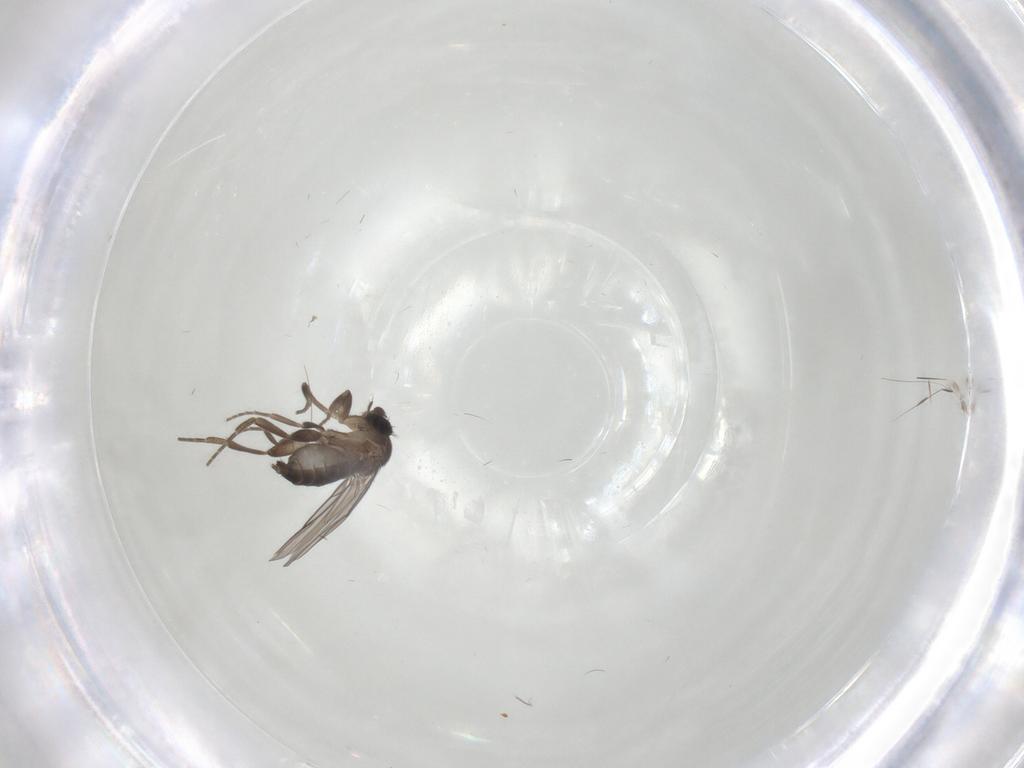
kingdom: Animalia
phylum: Arthropoda
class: Insecta
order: Diptera
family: Phoridae
